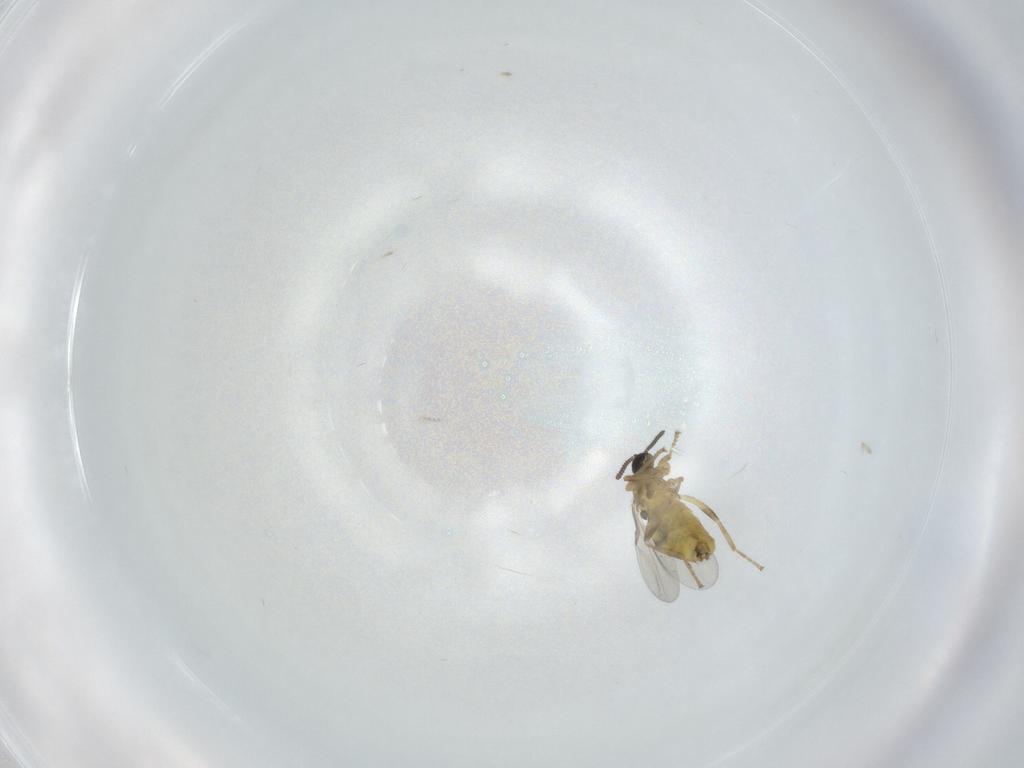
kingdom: Animalia
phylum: Arthropoda
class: Insecta
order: Diptera
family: Scatopsidae
